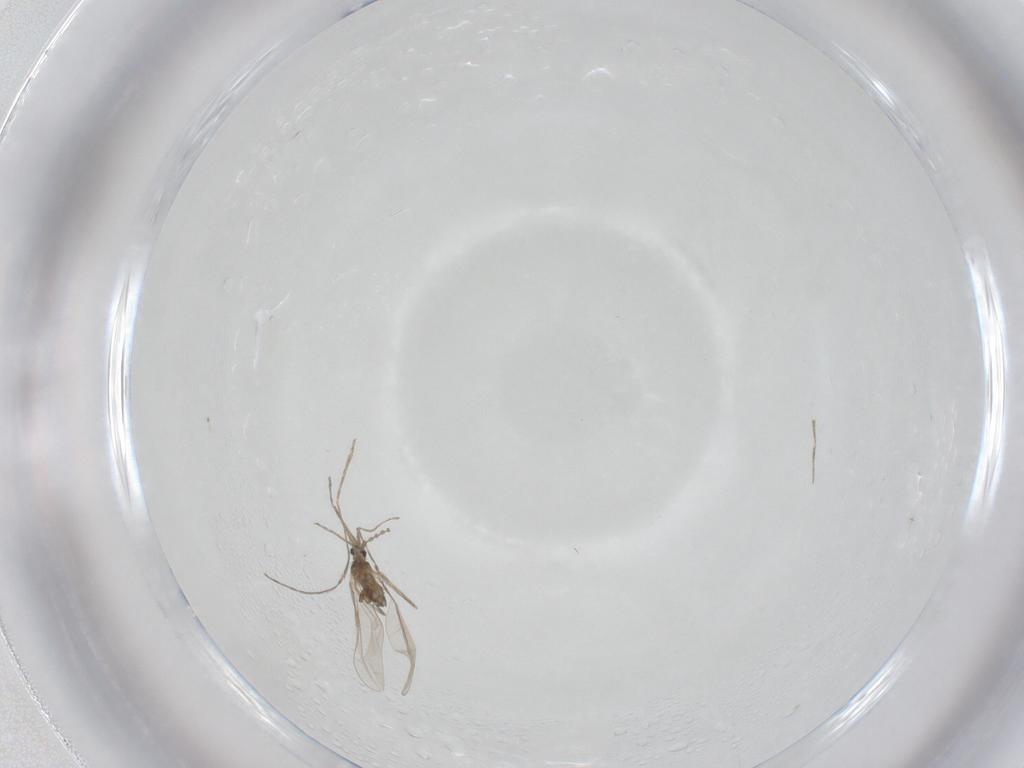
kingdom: Animalia
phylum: Arthropoda
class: Insecta
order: Diptera
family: Cecidomyiidae
